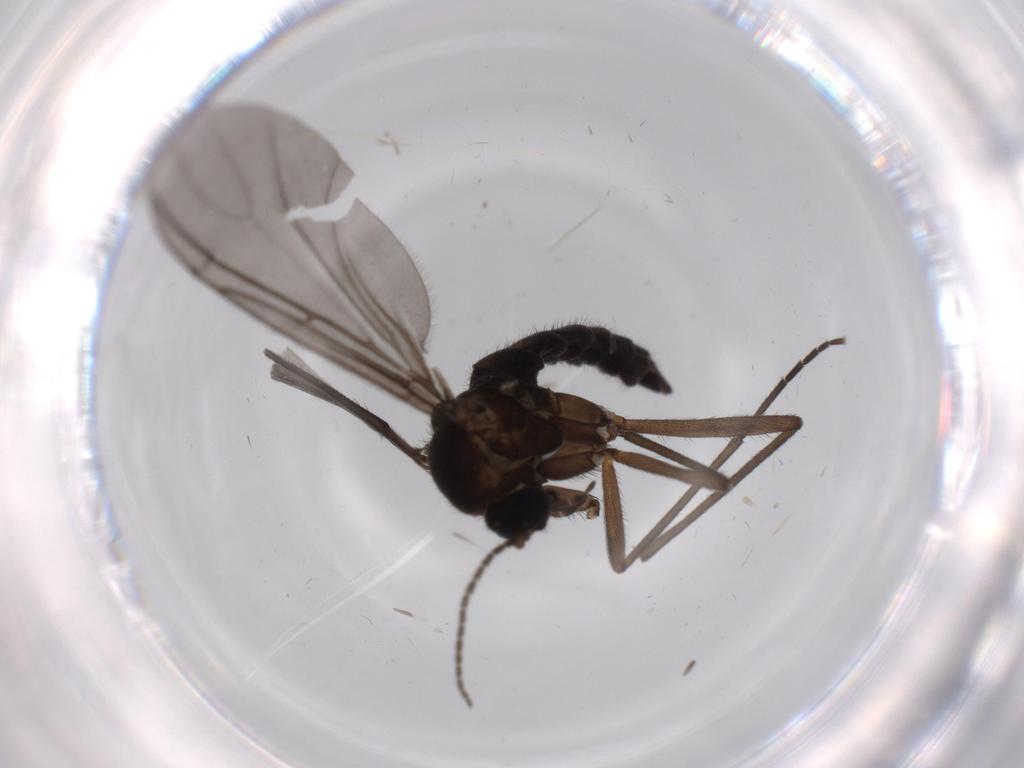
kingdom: Animalia
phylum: Arthropoda
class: Insecta
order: Diptera
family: Sciaridae
